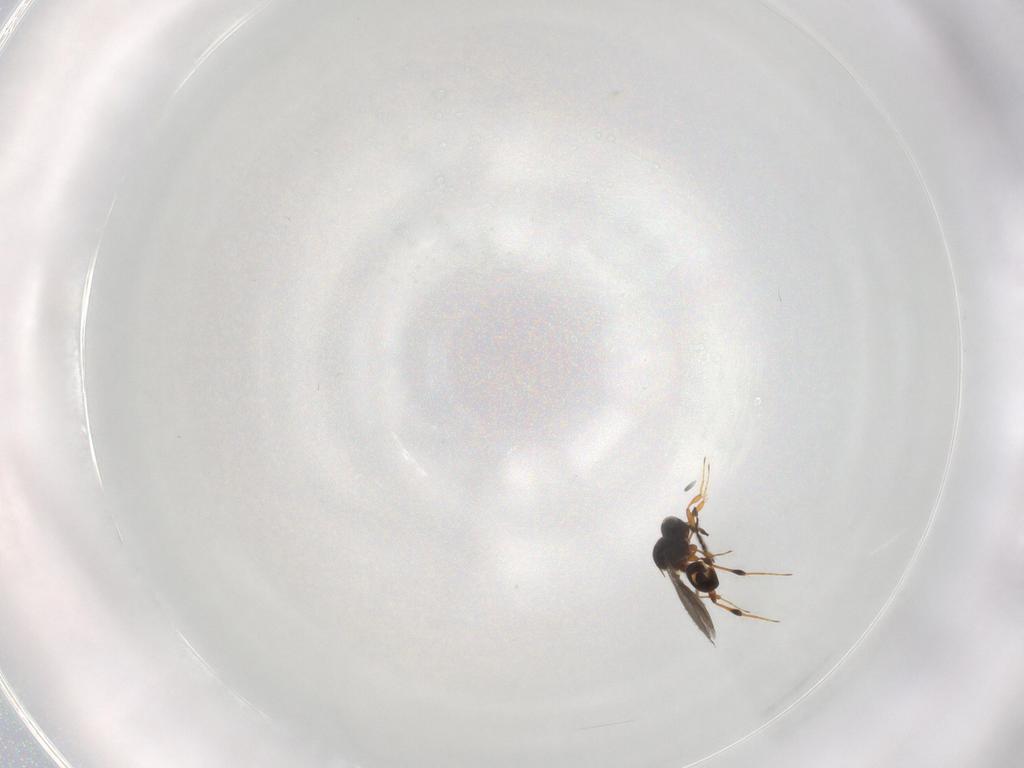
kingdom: Animalia
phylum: Arthropoda
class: Insecta
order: Hymenoptera
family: Platygastridae
